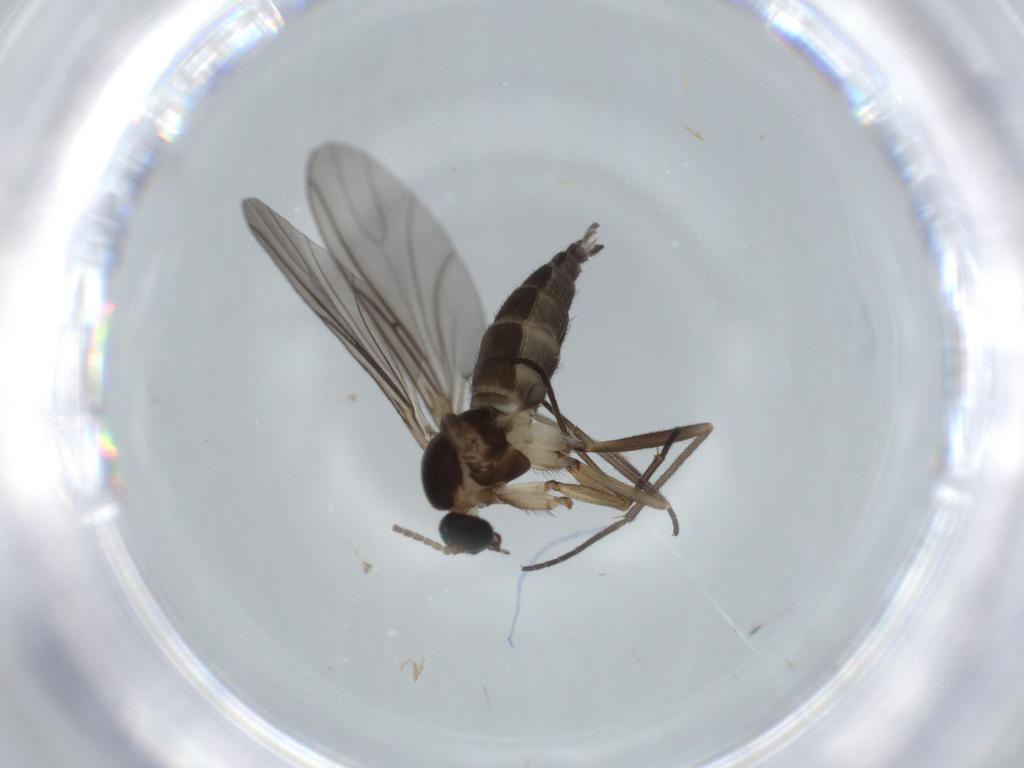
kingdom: Animalia
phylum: Arthropoda
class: Insecta
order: Diptera
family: Sciaridae
